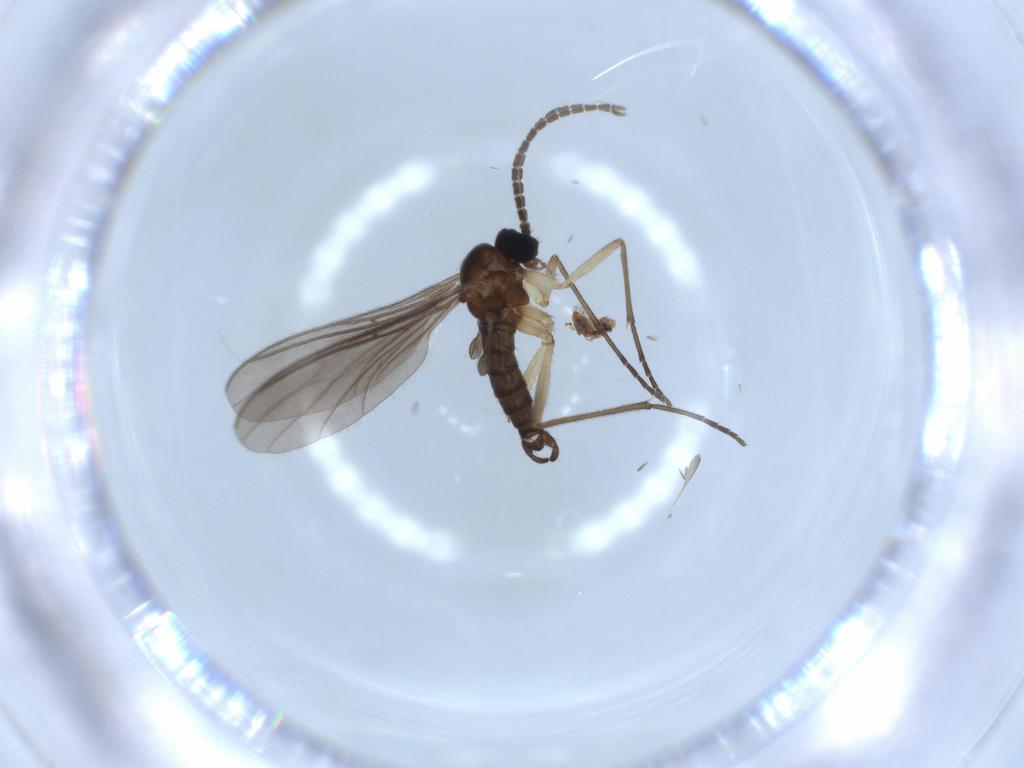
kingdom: Animalia
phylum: Arthropoda
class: Insecta
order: Diptera
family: Sciaridae
